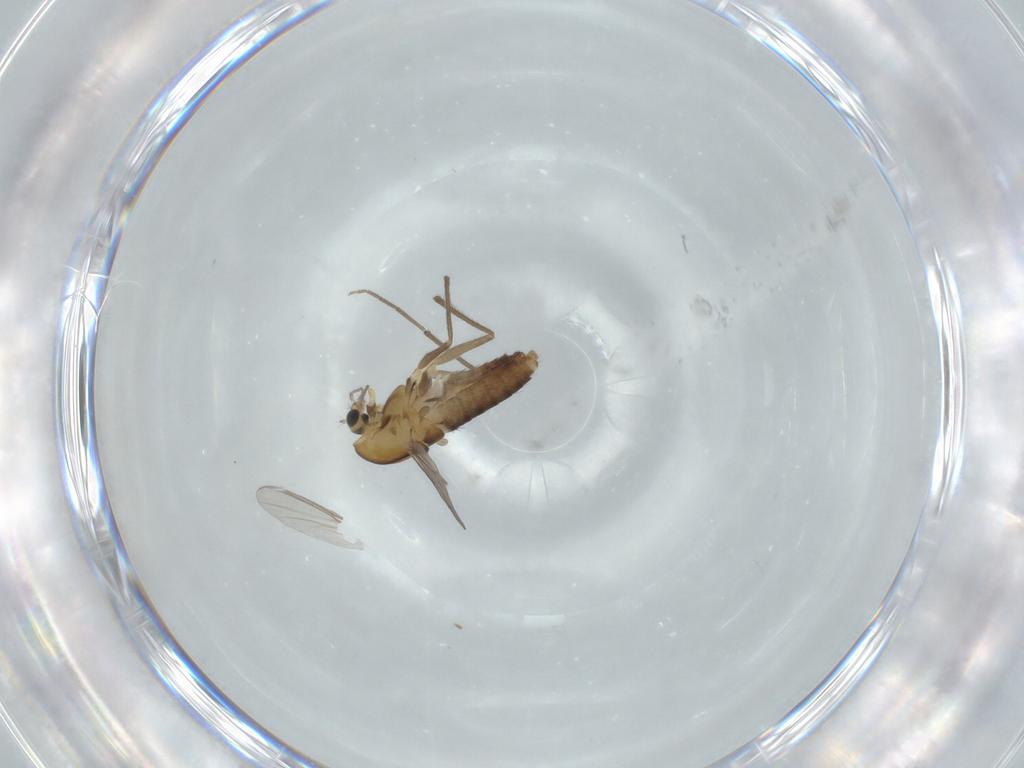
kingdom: Animalia
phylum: Arthropoda
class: Insecta
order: Diptera
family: Chironomidae
